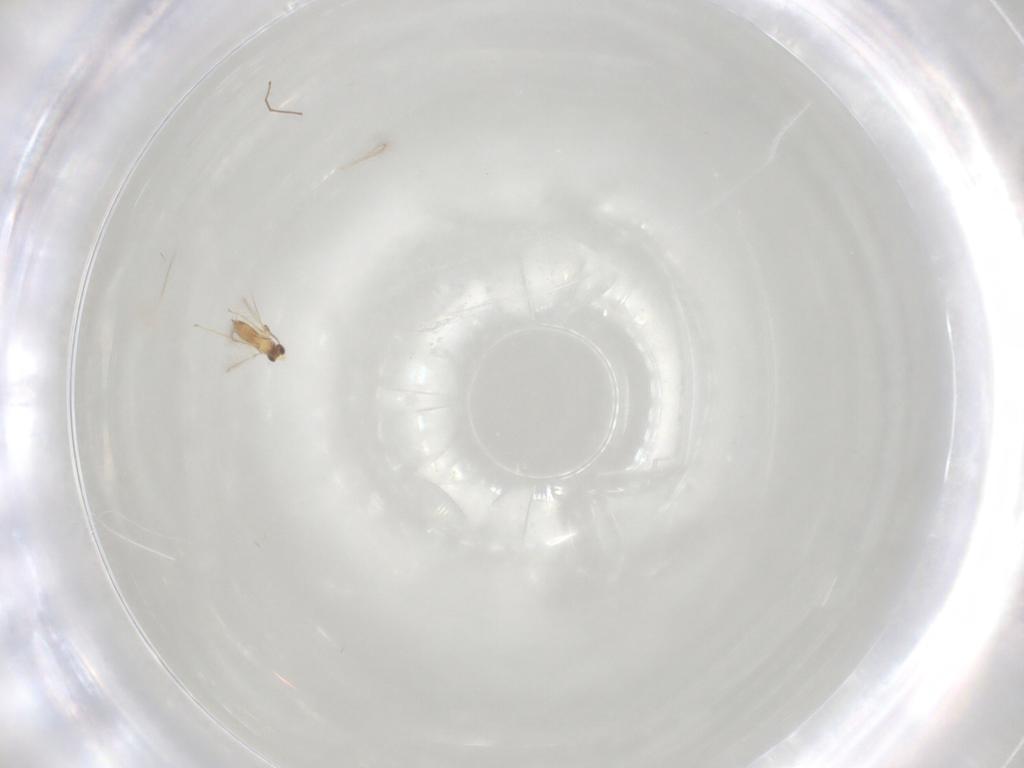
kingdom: Animalia
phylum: Arthropoda
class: Insecta
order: Hymenoptera
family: Mymaridae
